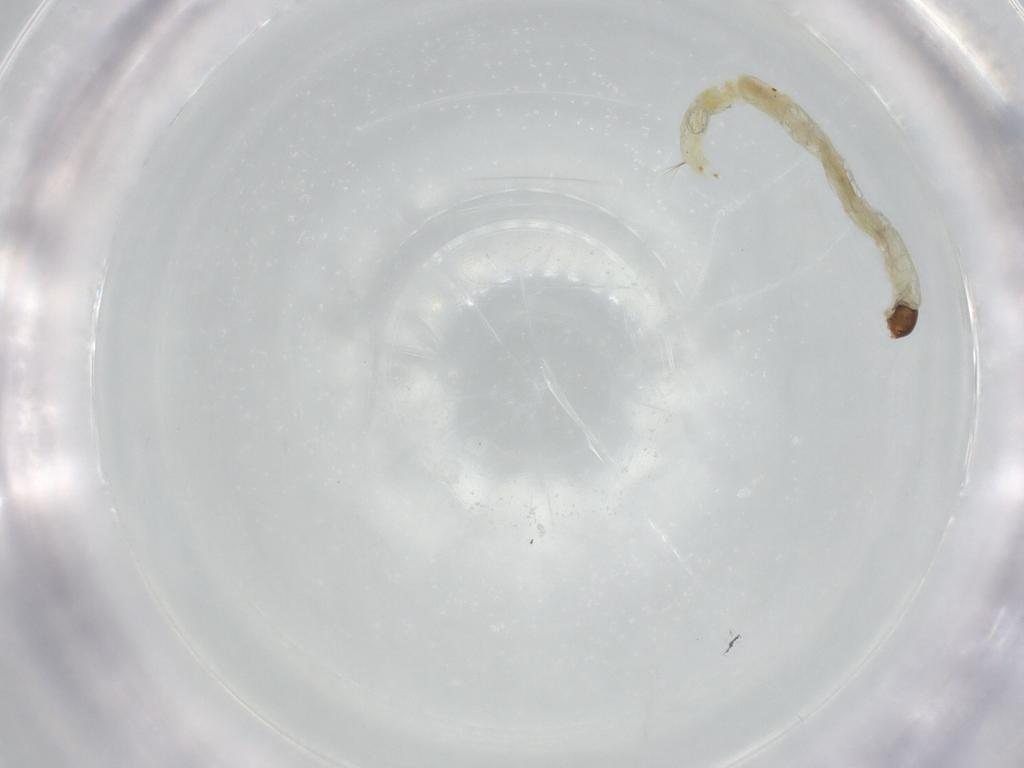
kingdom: Animalia
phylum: Arthropoda
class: Insecta
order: Diptera
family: Chironomidae
